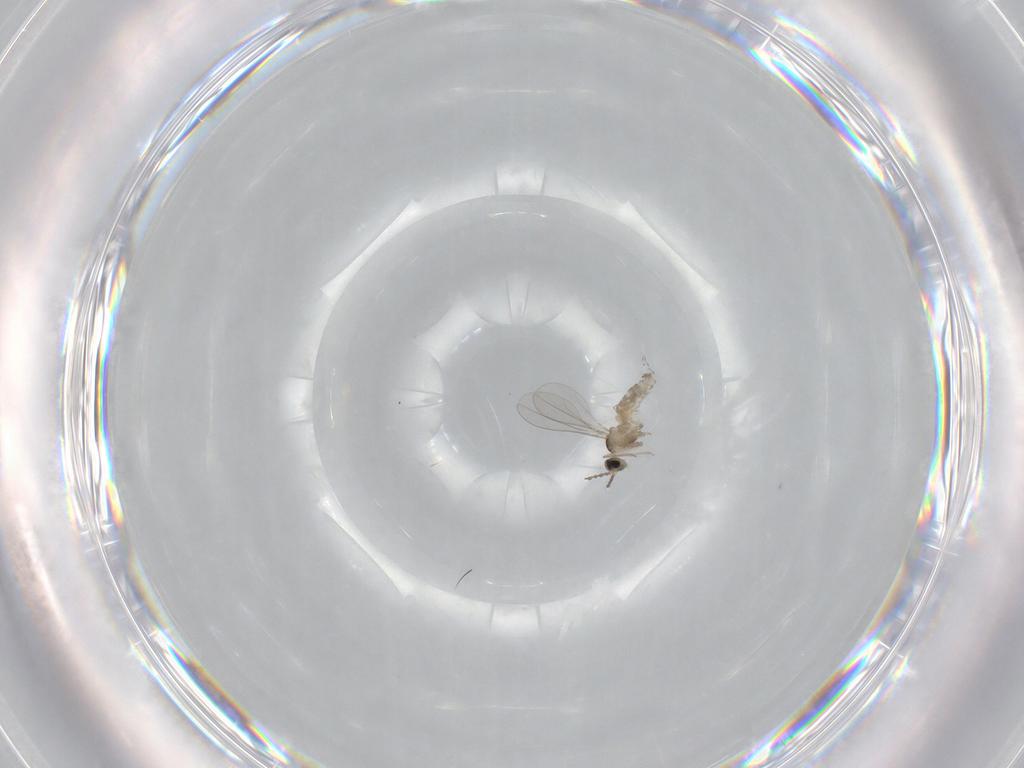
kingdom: Animalia
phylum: Arthropoda
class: Insecta
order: Diptera
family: Cecidomyiidae
